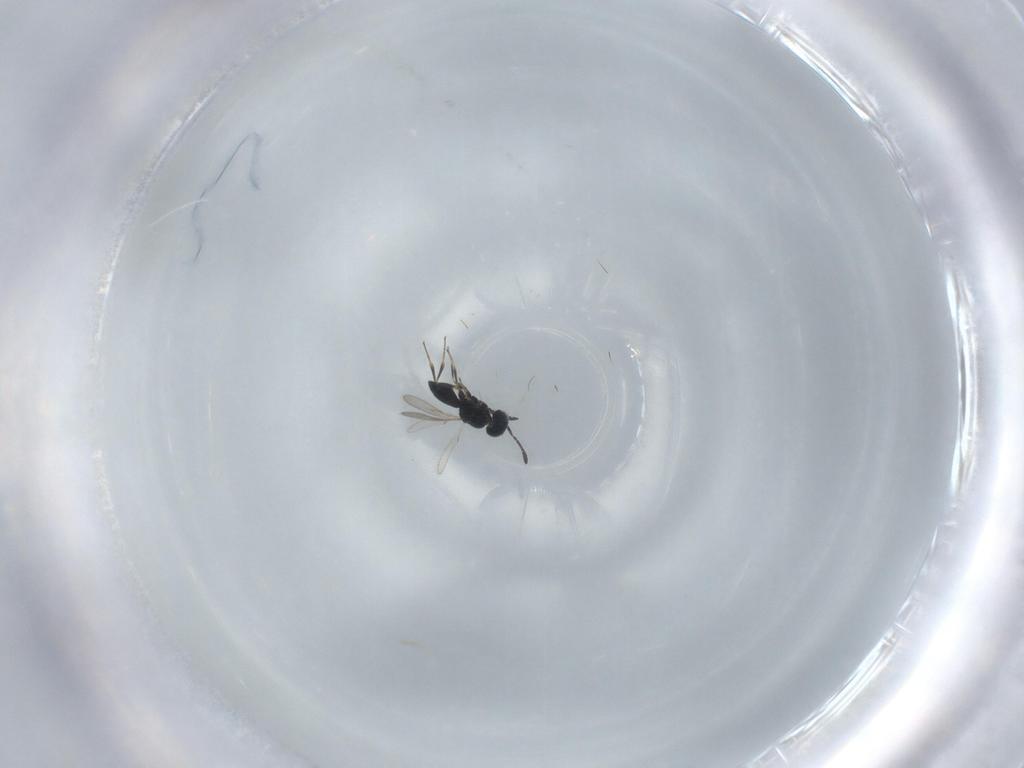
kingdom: Animalia
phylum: Arthropoda
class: Insecta
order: Hymenoptera
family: Scelionidae
